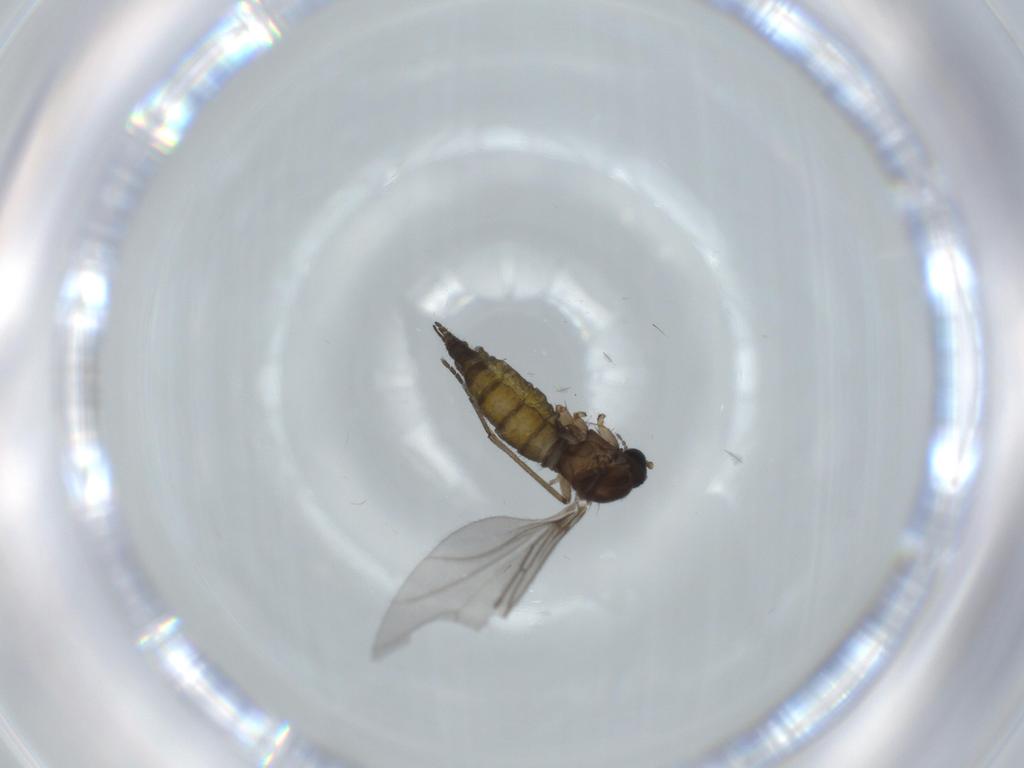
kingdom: Animalia
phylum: Arthropoda
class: Insecta
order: Diptera
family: Sciaridae
